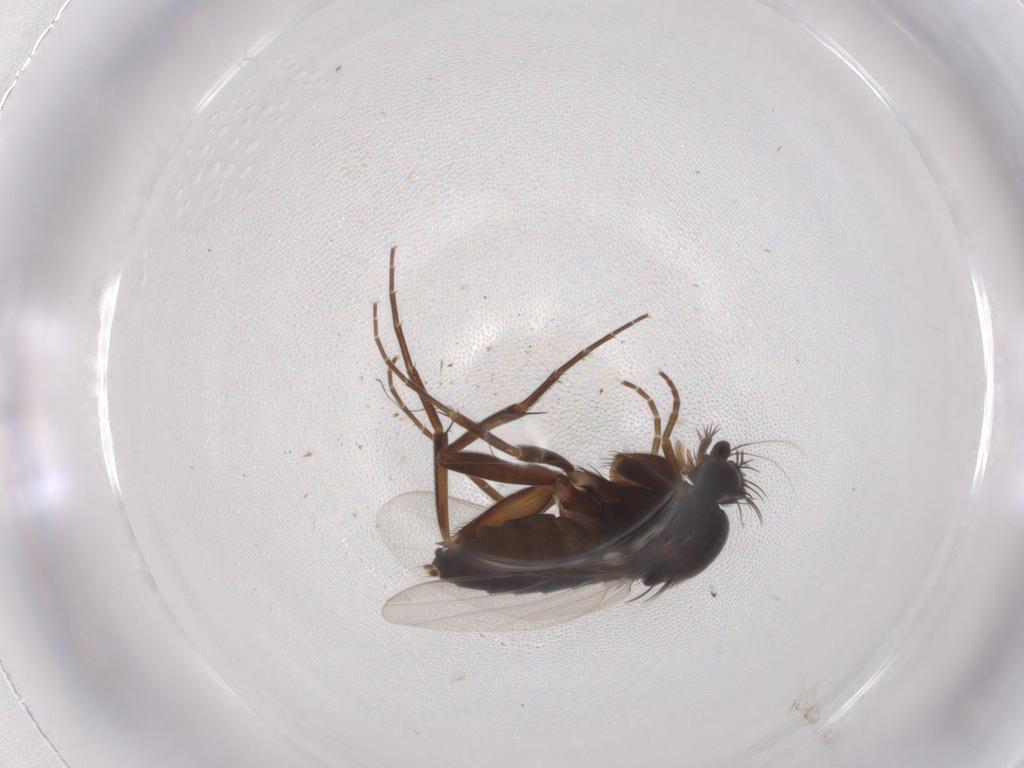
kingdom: Animalia
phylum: Arthropoda
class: Insecta
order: Diptera
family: Phoridae
